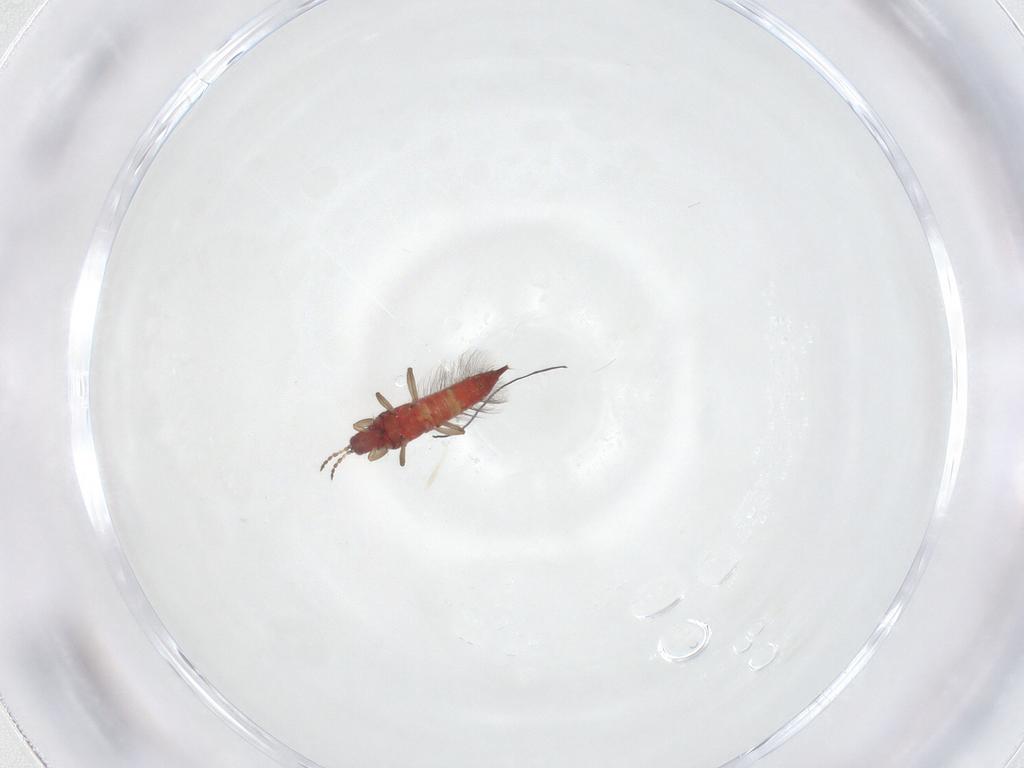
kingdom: Animalia
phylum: Arthropoda
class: Insecta
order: Thysanoptera
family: Phlaeothripidae
